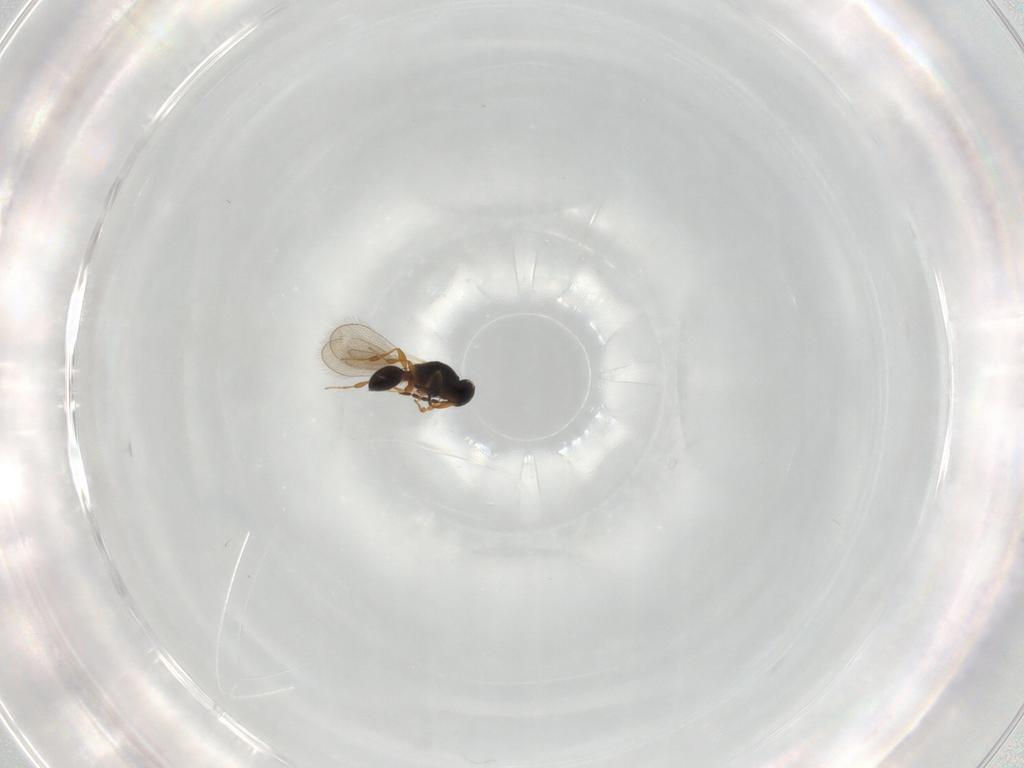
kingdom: Animalia
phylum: Arthropoda
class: Insecta
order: Hymenoptera
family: Platygastridae
